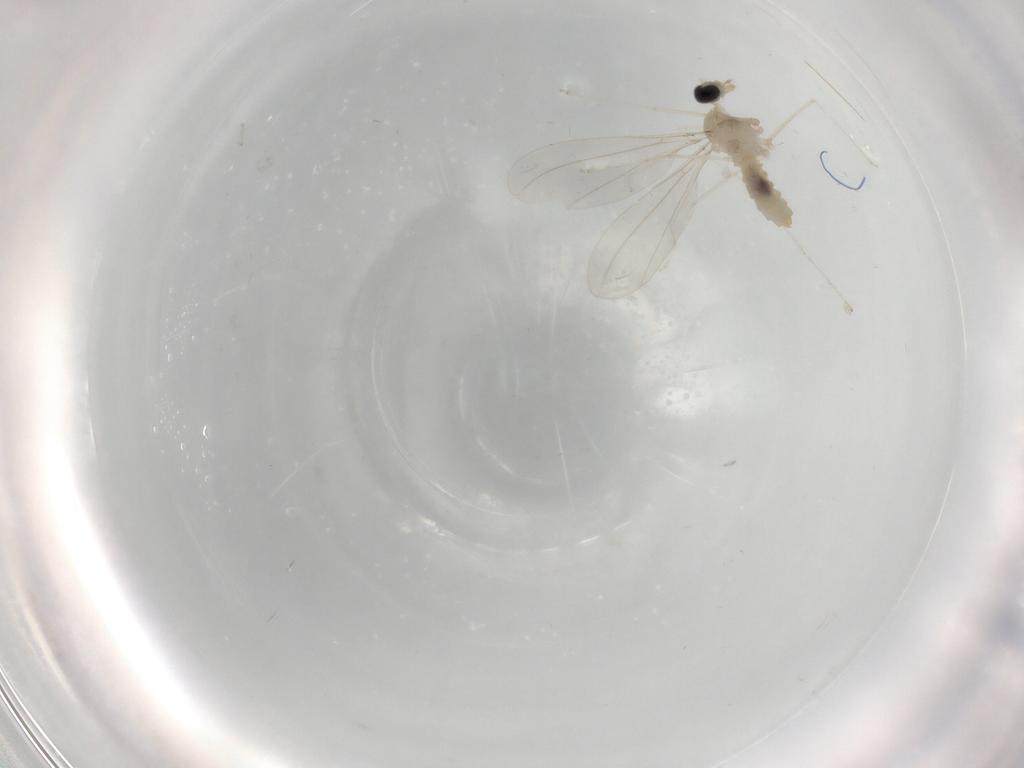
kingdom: Animalia
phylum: Arthropoda
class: Insecta
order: Diptera
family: Cecidomyiidae
